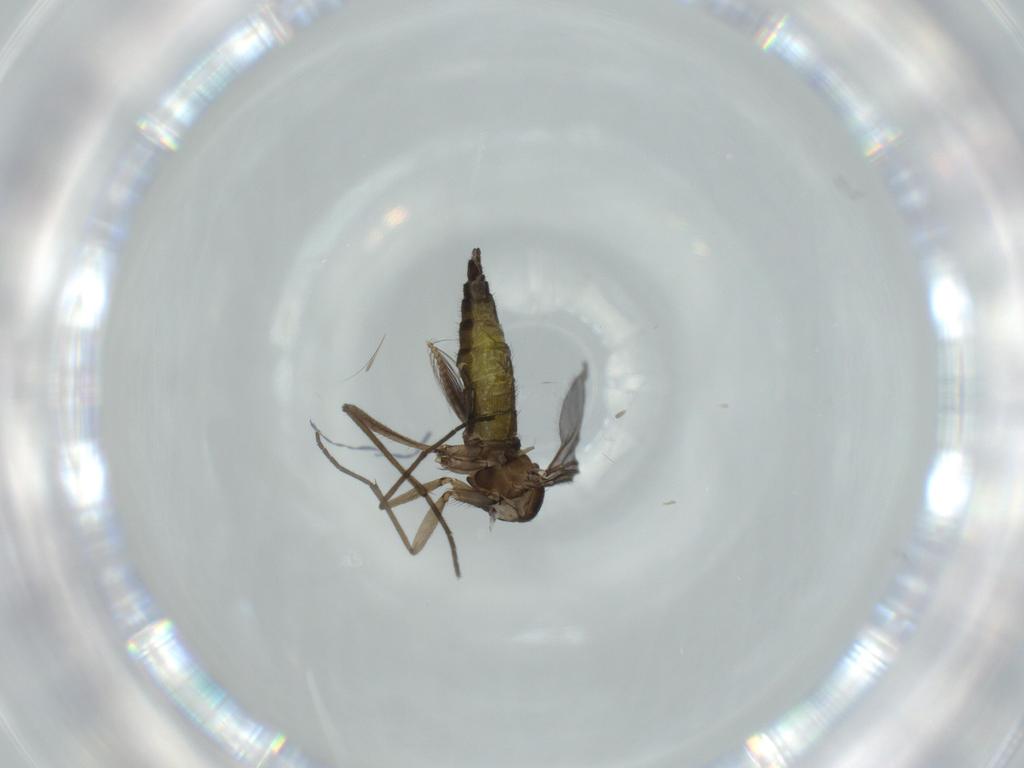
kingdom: Animalia
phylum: Arthropoda
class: Insecta
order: Diptera
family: Sciaridae
